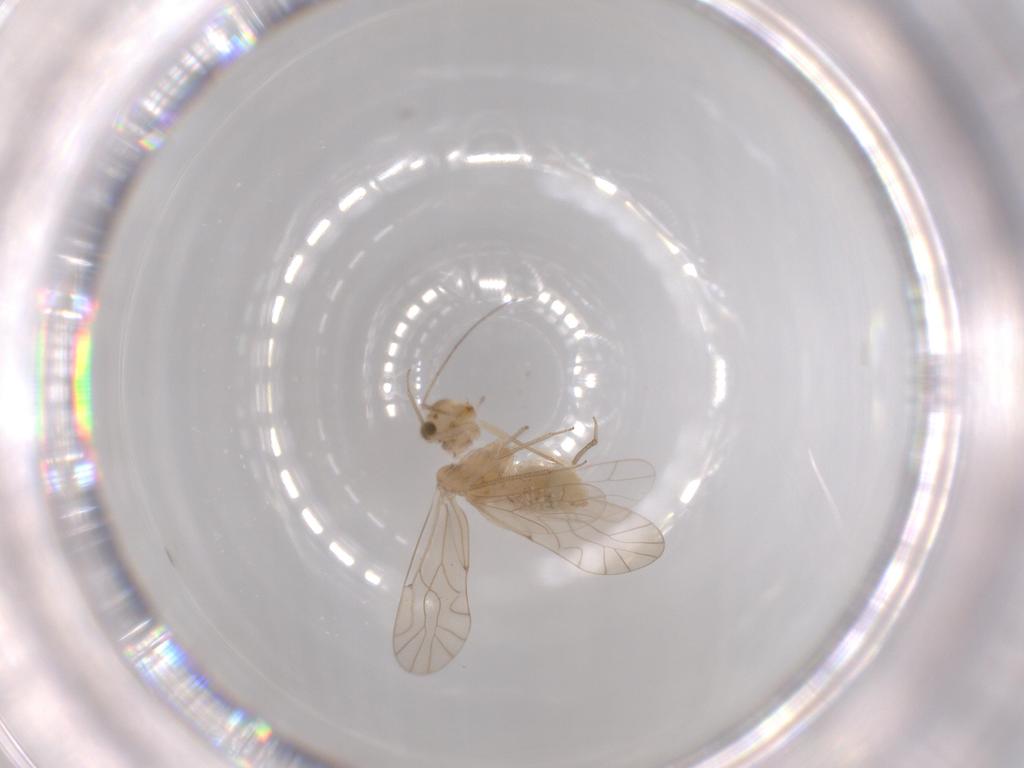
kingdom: Animalia
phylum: Arthropoda
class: Insecta
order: Psocodea
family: Lachesillidae
